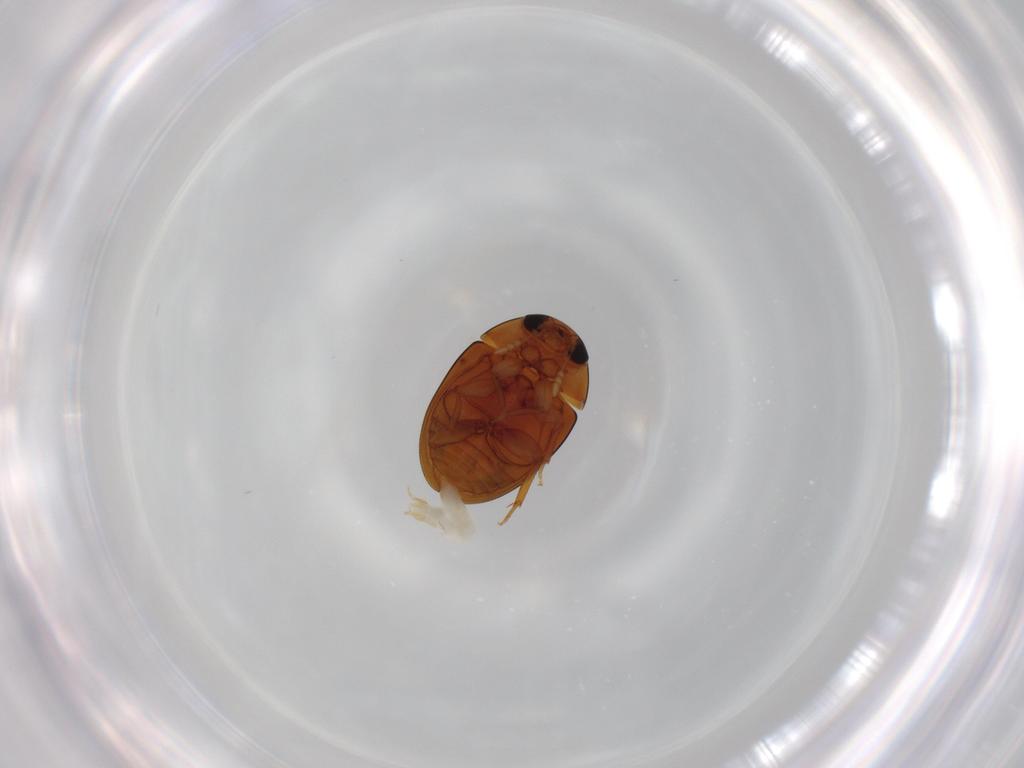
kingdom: Animalia
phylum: Arthropoda
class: Insecta
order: Coleoptera
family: Phalacridae
